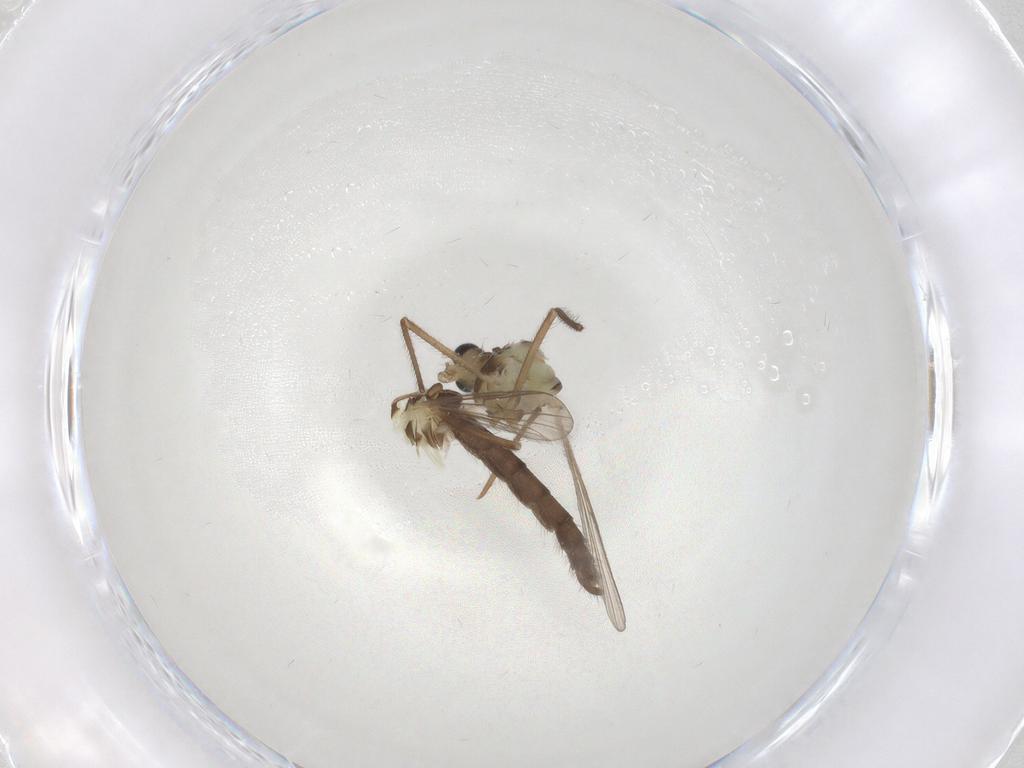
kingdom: Animalia
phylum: Arthropoda
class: Insecta
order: Diptera
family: Chironomidae
